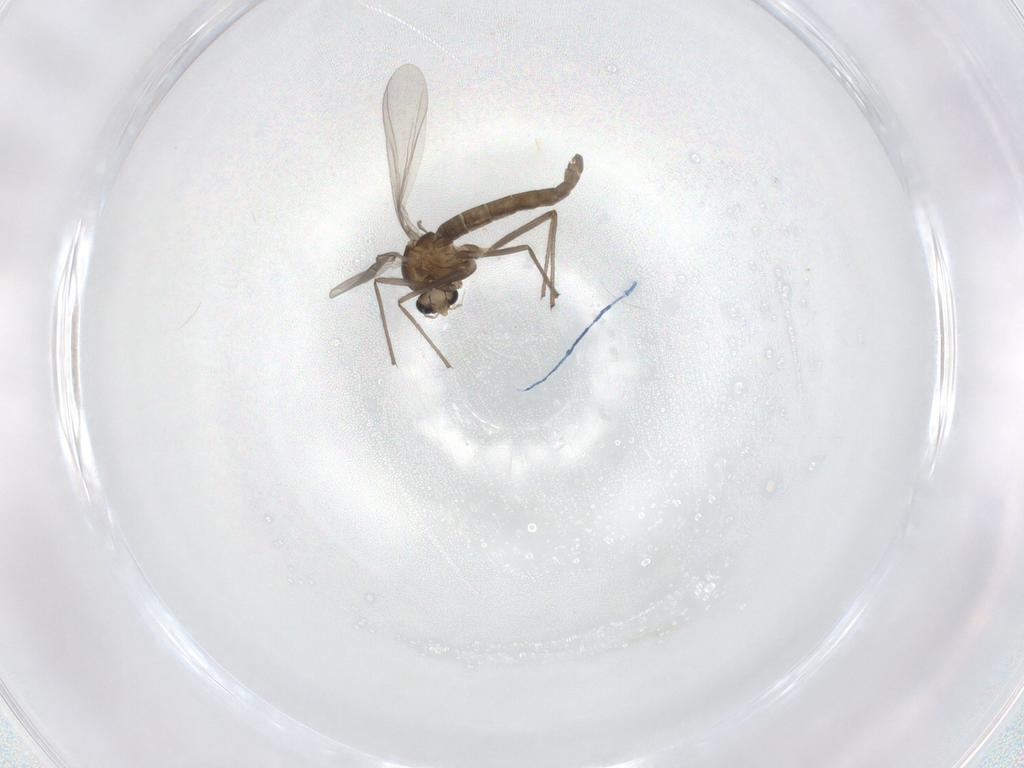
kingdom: Animalia
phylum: Arthropoda
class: Insecta
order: Diptera
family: Chironomidae
